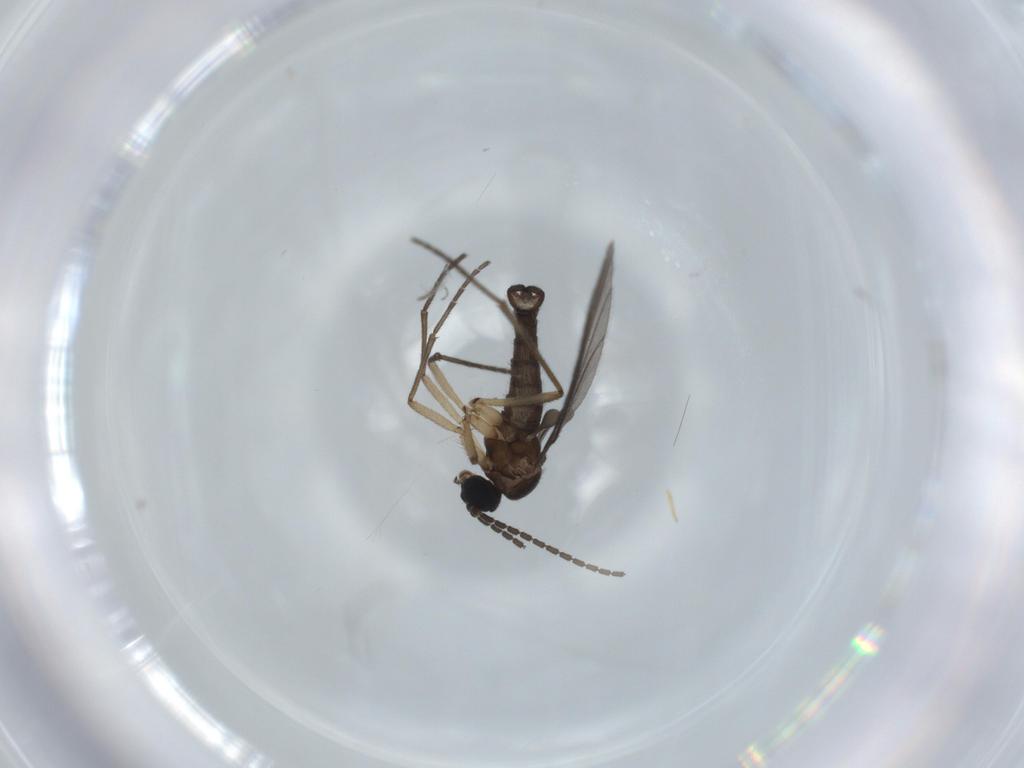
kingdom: Animalia
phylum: Arthropoda
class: Insecta
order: Diptera
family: Sciaridae
